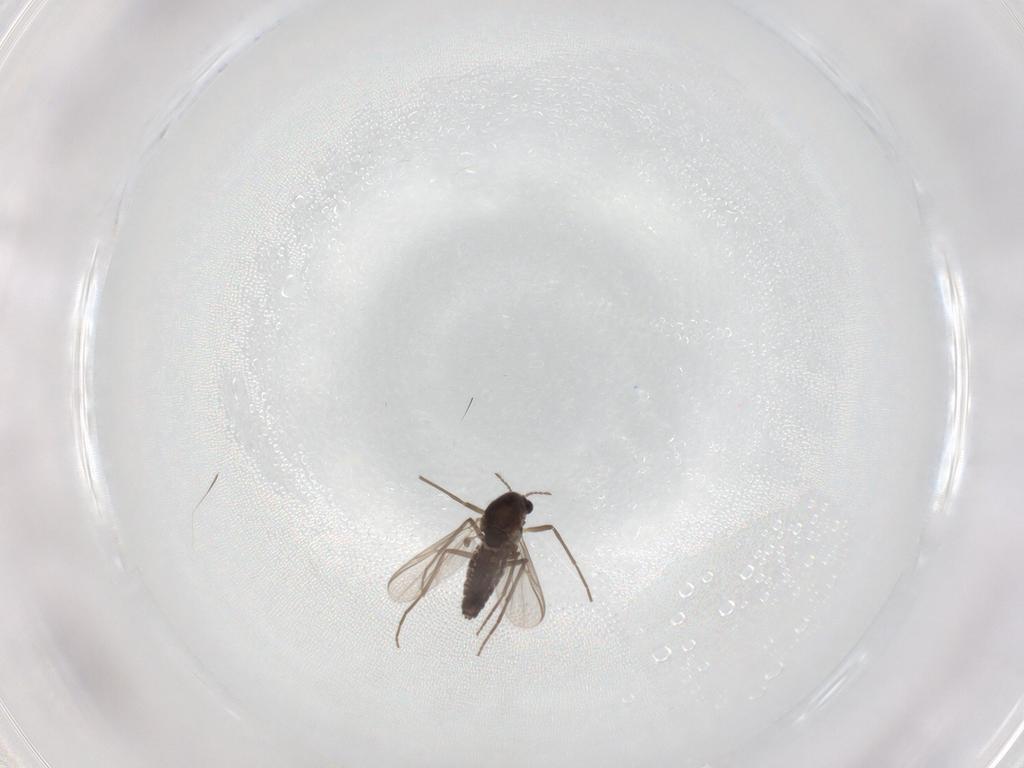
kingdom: Animalia
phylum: Arthropoda
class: Insecta
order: Diptera
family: Chironomidae
